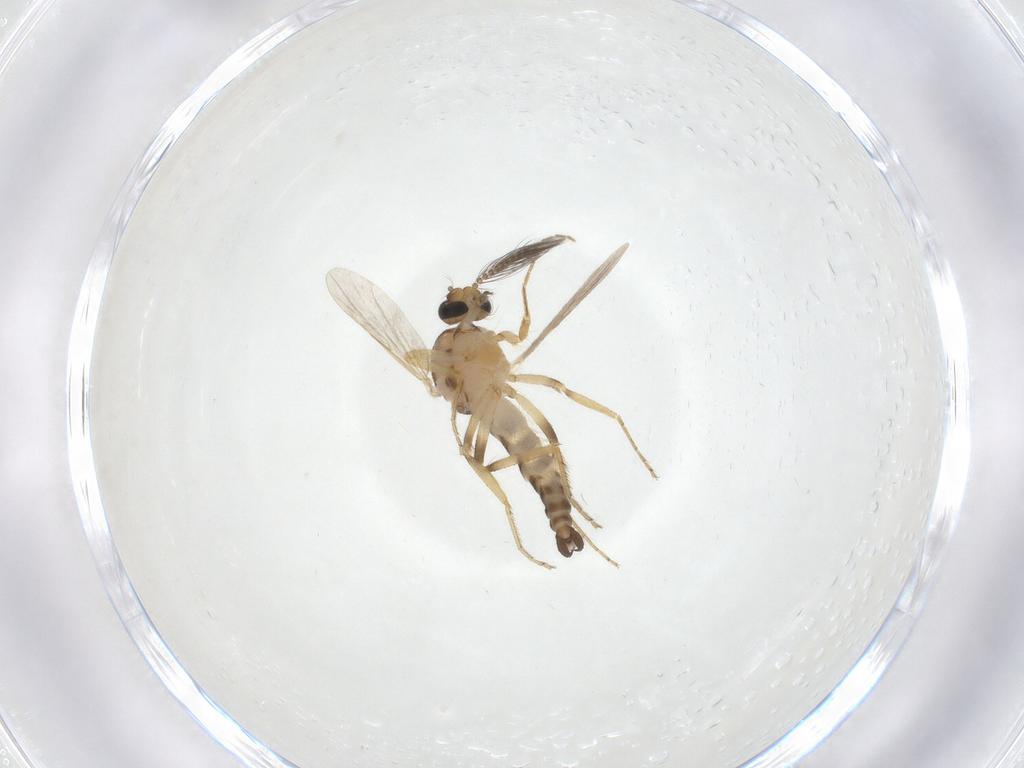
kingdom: Animalia
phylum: Arthropoda
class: Insecta
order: Diptera
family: Ceratopogonidae
